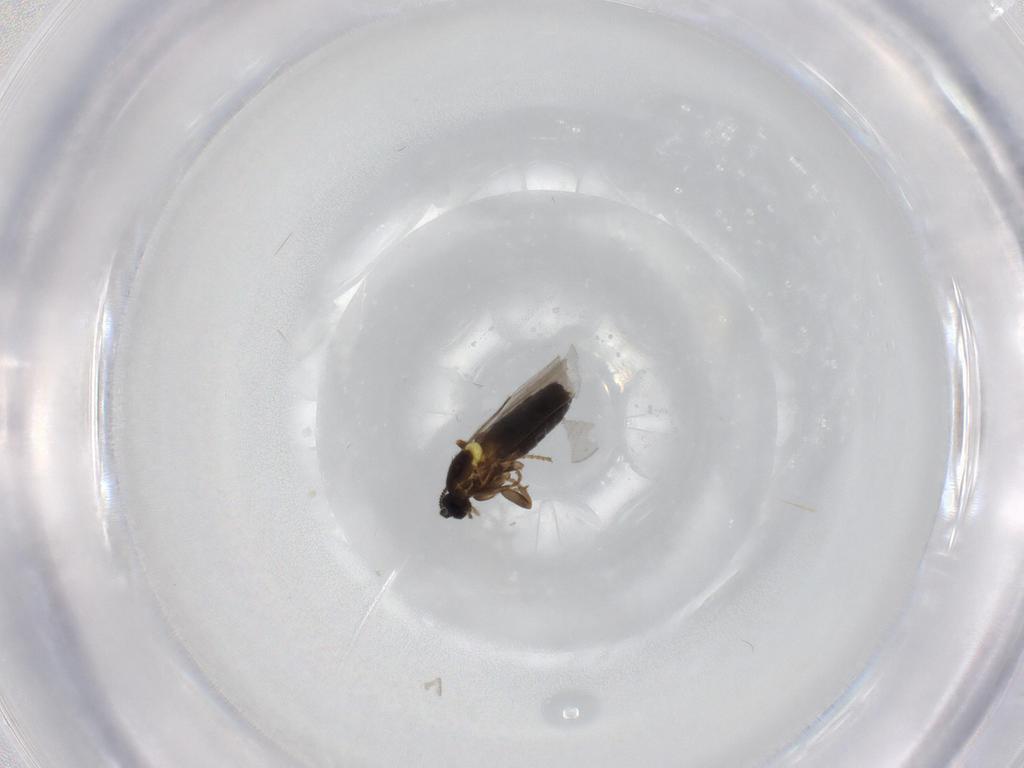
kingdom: Animalia
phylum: Arthropoda
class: Insecta
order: Diptera
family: Scatopsidae
